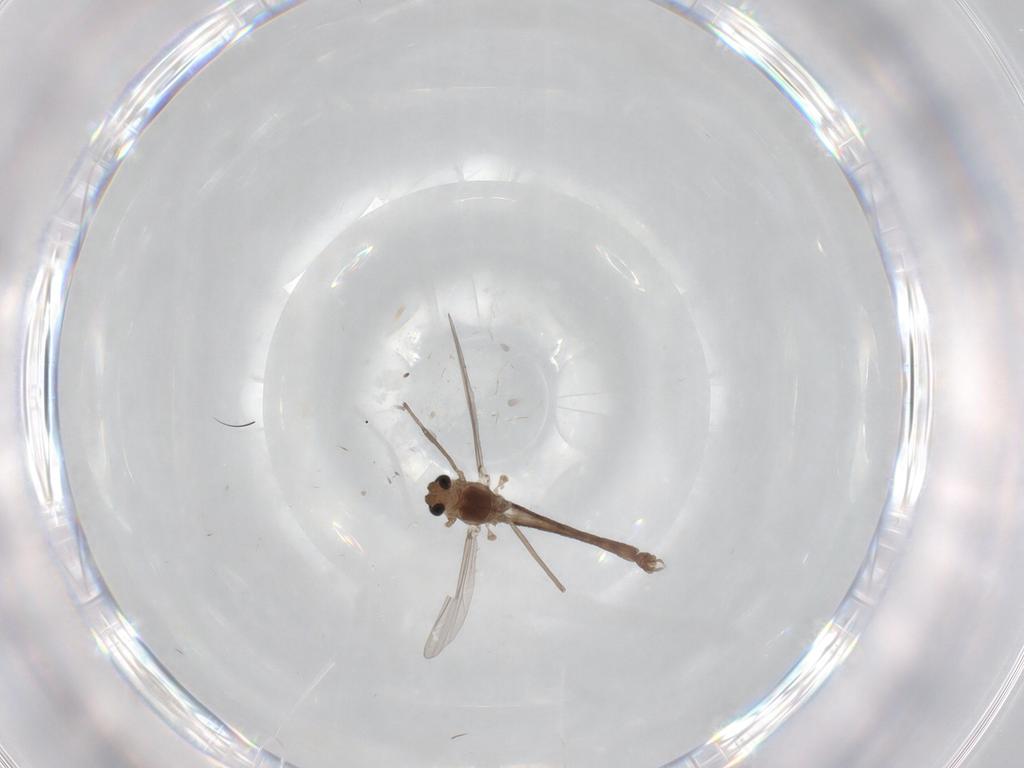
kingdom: Animalia
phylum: Arthropoda
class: Insecta
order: Diptera
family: Chironomidae
